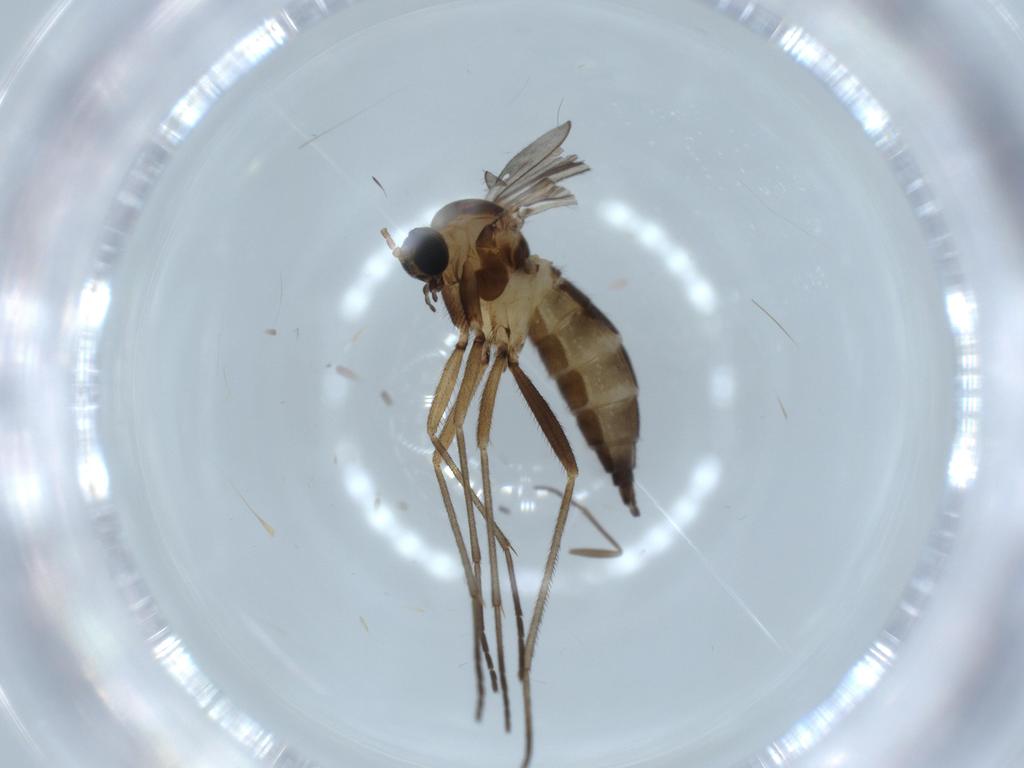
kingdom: Animalia
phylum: Arthropoda
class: Insecta
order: Diptera
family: Sciaridae
